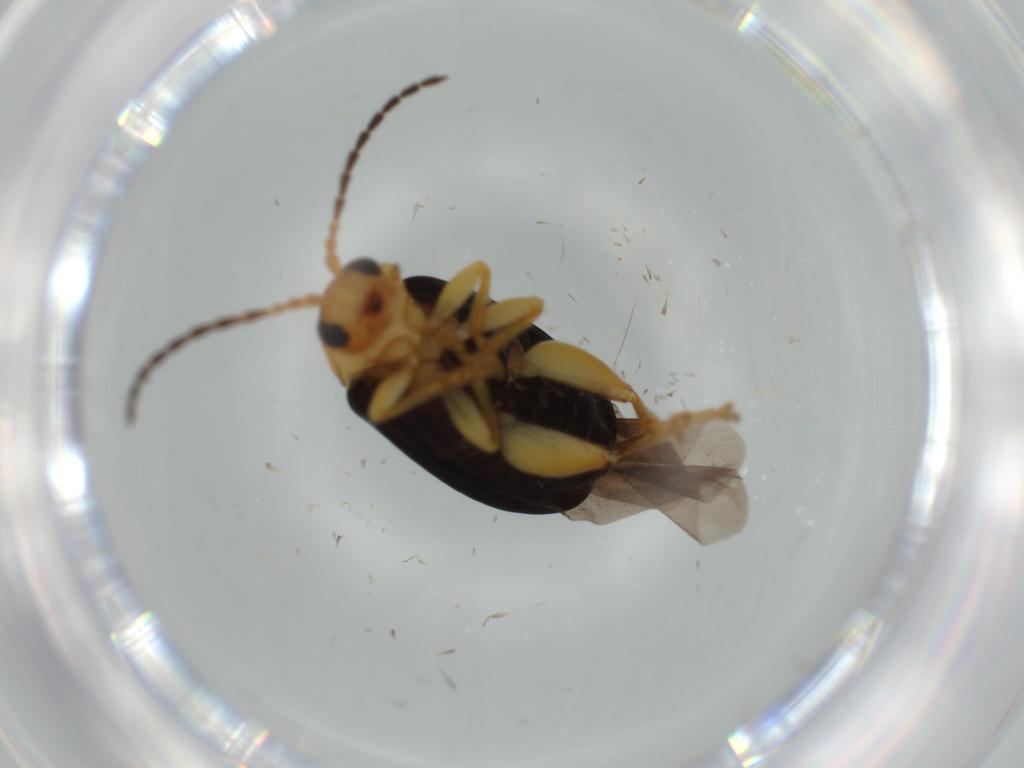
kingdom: Animalia
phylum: Arthropoda
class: Insecta
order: Coleoptera
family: Chrysomelidae
